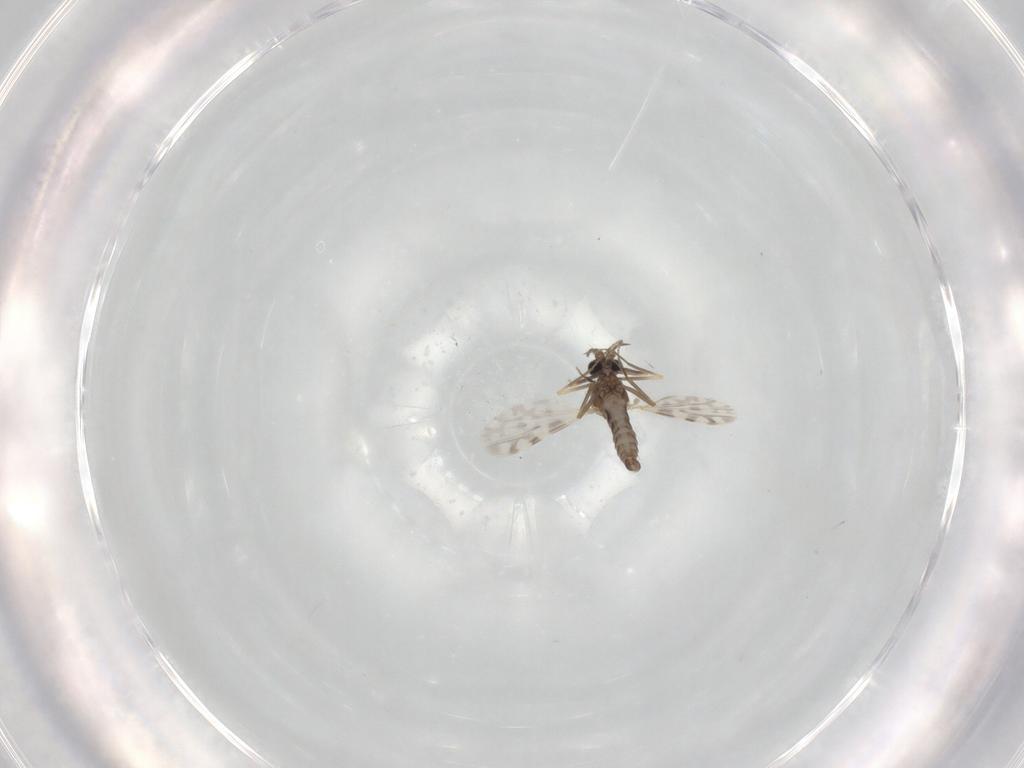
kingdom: Animalia
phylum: Arthropoda
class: Insecta
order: Diptera
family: Ceratopogonidae
